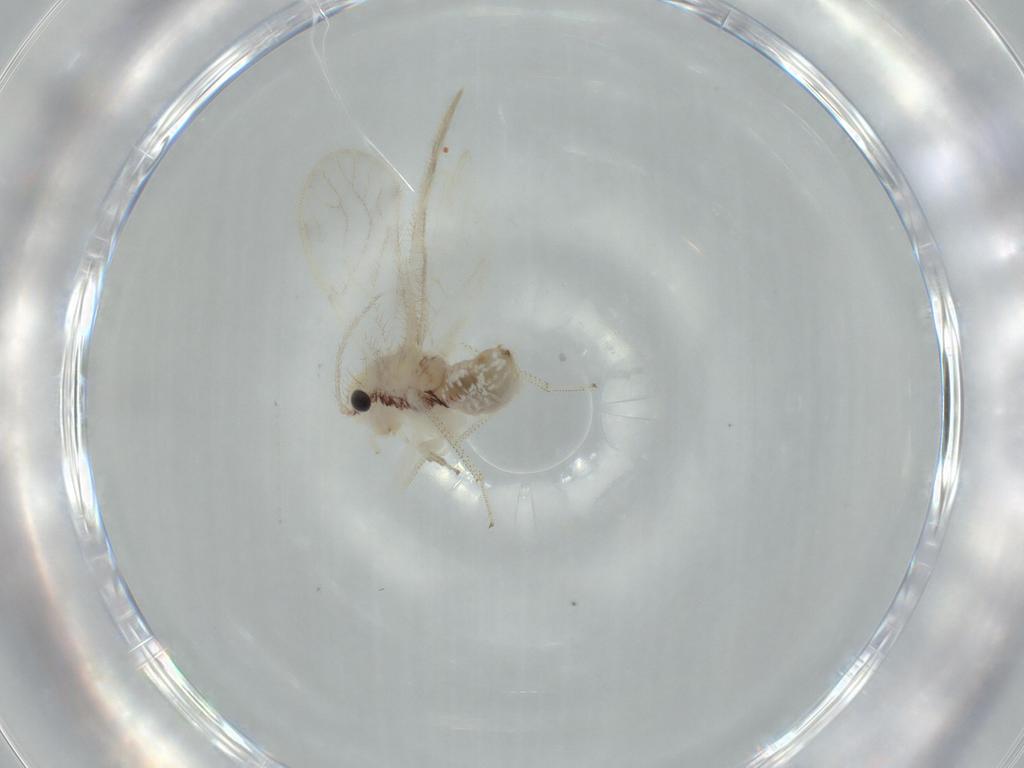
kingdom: Animalia
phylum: Arthropoda
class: Insecta
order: Psocodea
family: Pseudocaeciliidae
